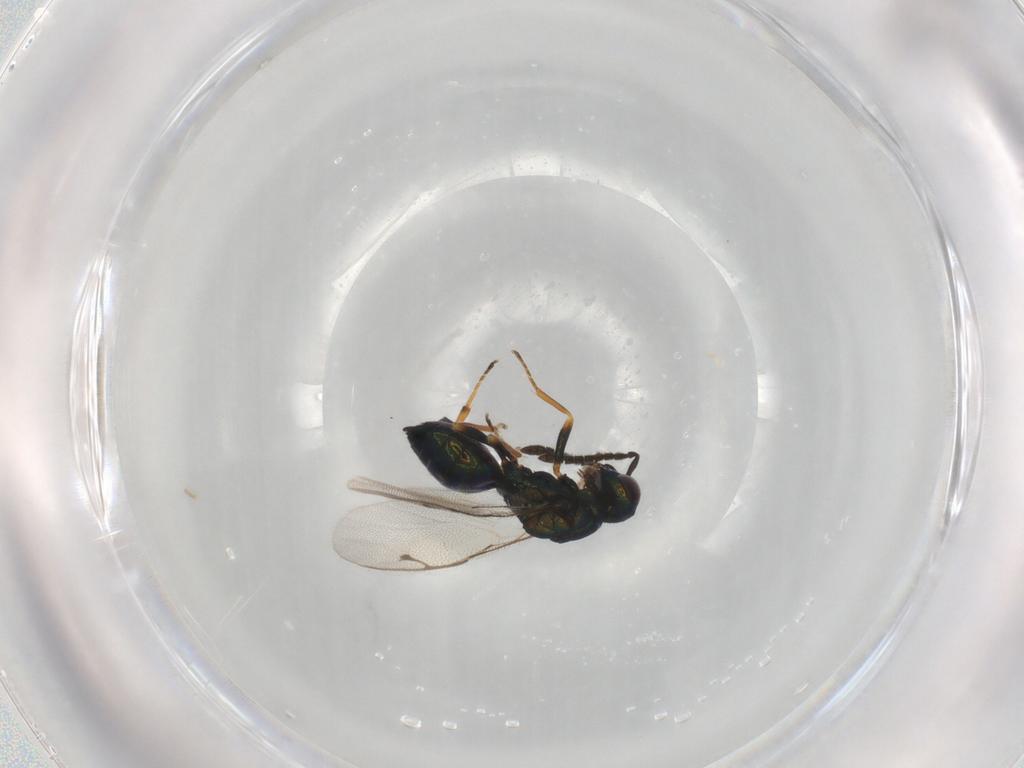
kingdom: Animalia
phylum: Arthropoda
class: Insecta
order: Hymenoptera
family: Pteromalidae
